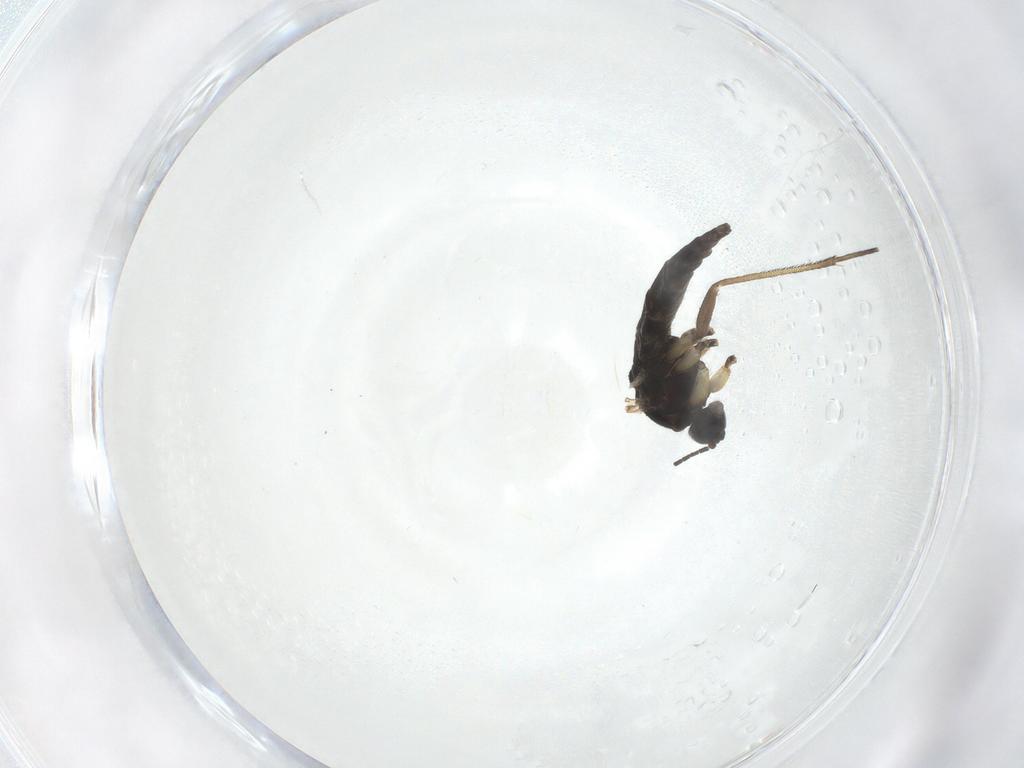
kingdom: Animalia
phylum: Arthropoda
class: Insecta
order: Diptera
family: Sciaridae
